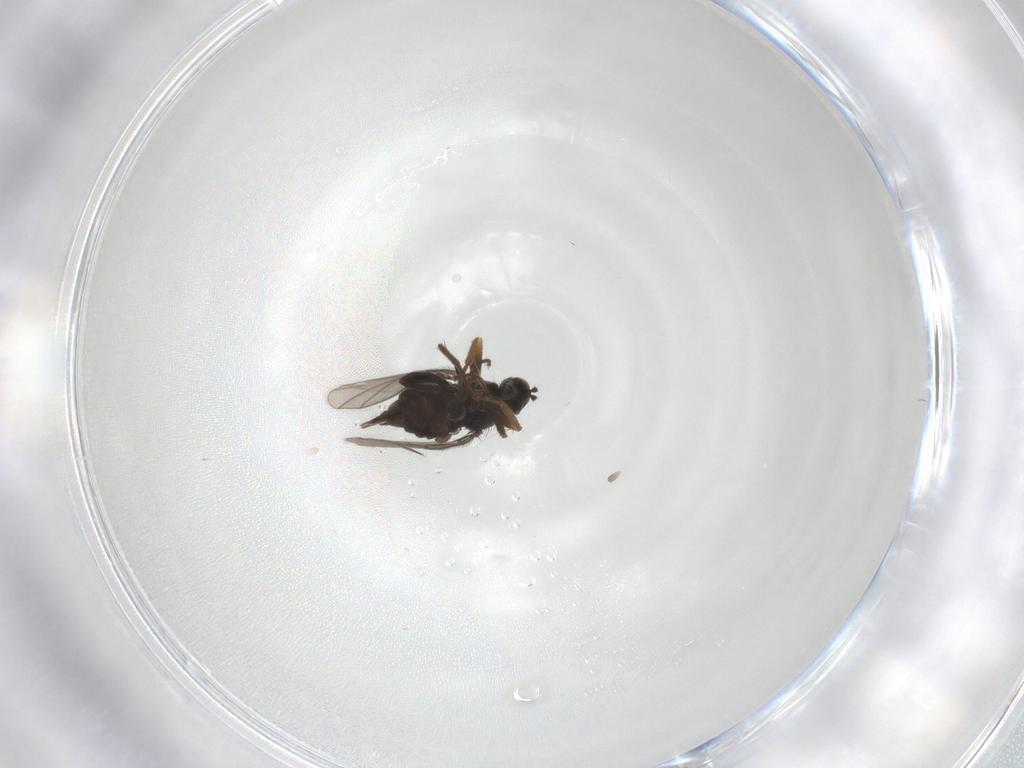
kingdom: Animalia
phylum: Arthropoda
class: Insecta
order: Diptera
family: Hybotidae
